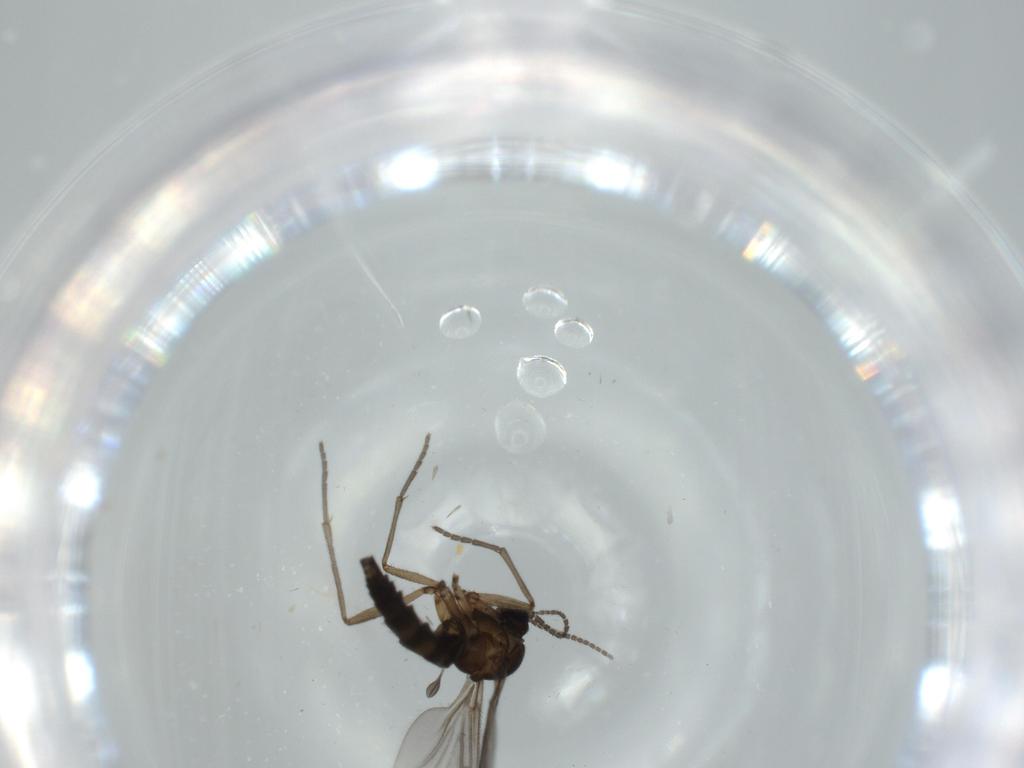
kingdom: Animalia
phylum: Arthropoda
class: Insecta
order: Diptera
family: Sciaridae
